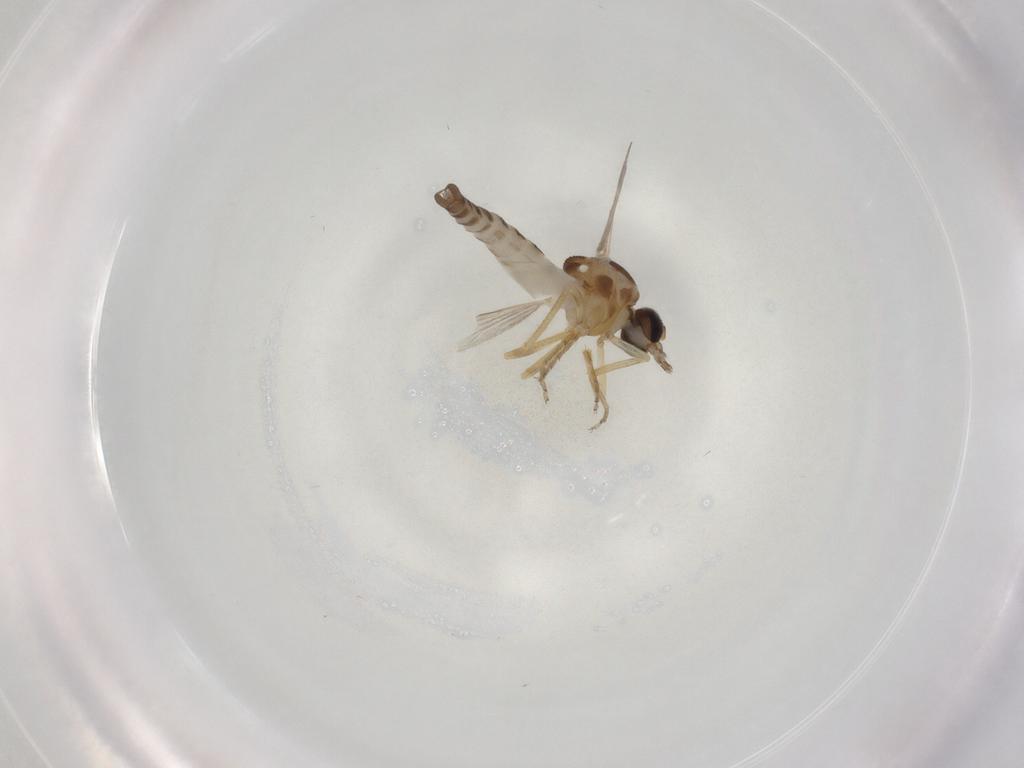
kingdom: Animalia
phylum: Arthropoda
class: Insecta
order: Diptera
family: Ceratopogonidae
